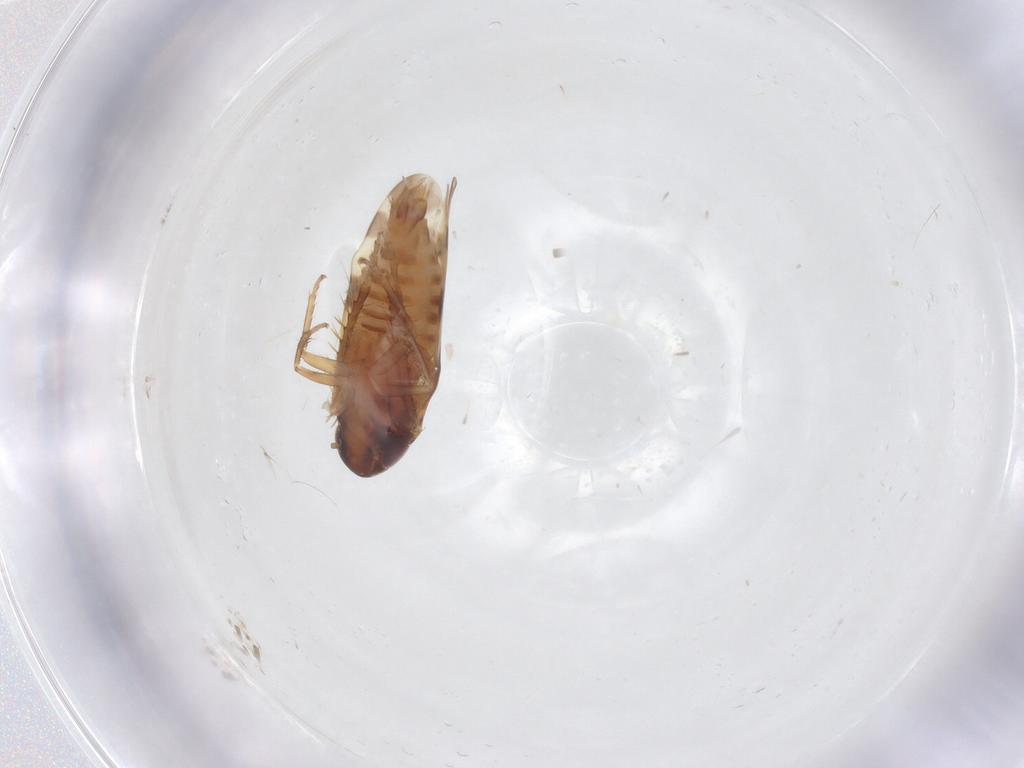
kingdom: Animalia
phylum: Arthropoda
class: Insecta
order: Hemiptera
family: Cicadellidae
